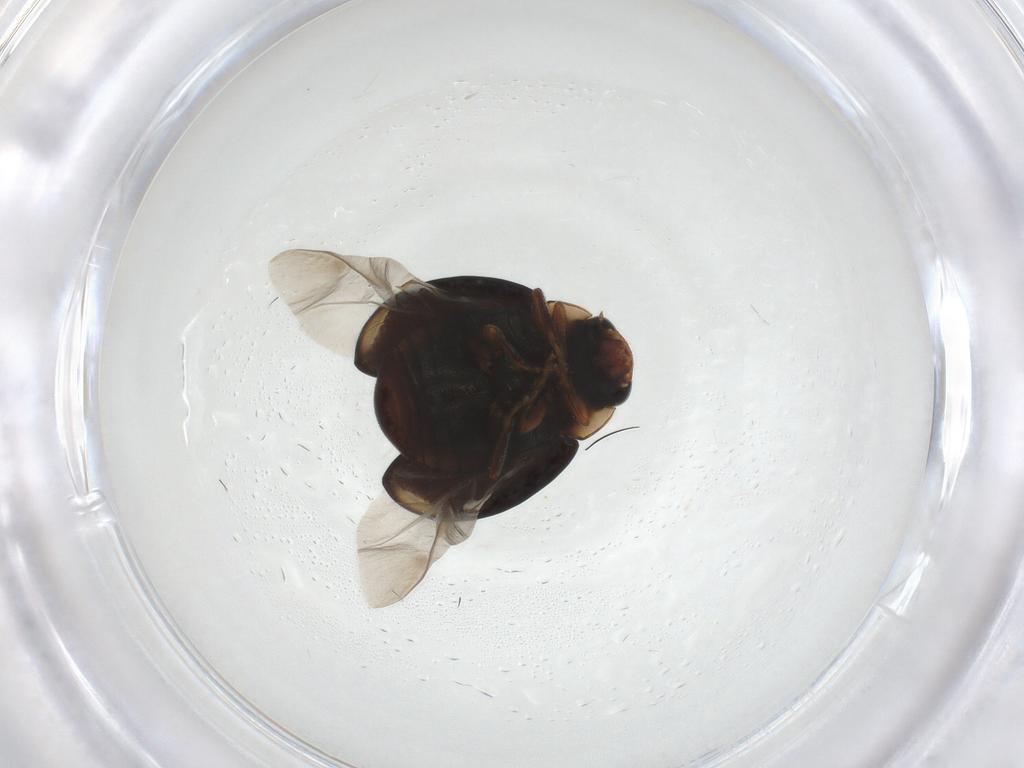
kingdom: Animalia
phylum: Arthropoda
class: Insecta
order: Coleoptera
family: Coccinellidae
